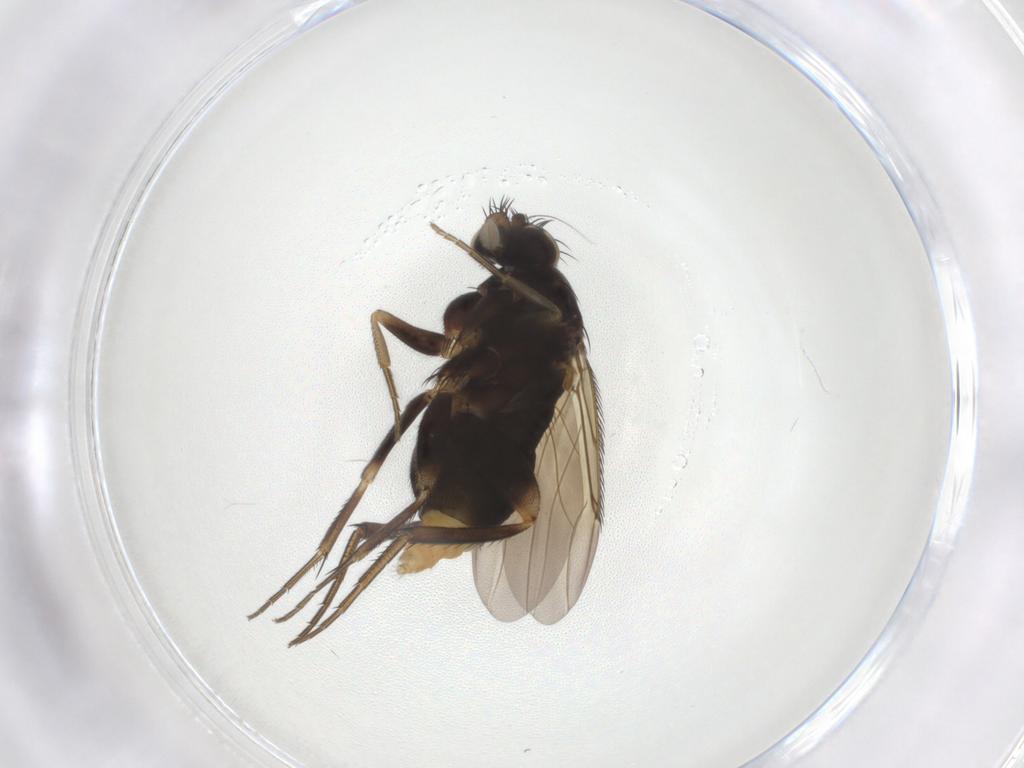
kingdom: Animalia
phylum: Arthropoda
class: Insecta
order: Diptera
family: Phoridae
